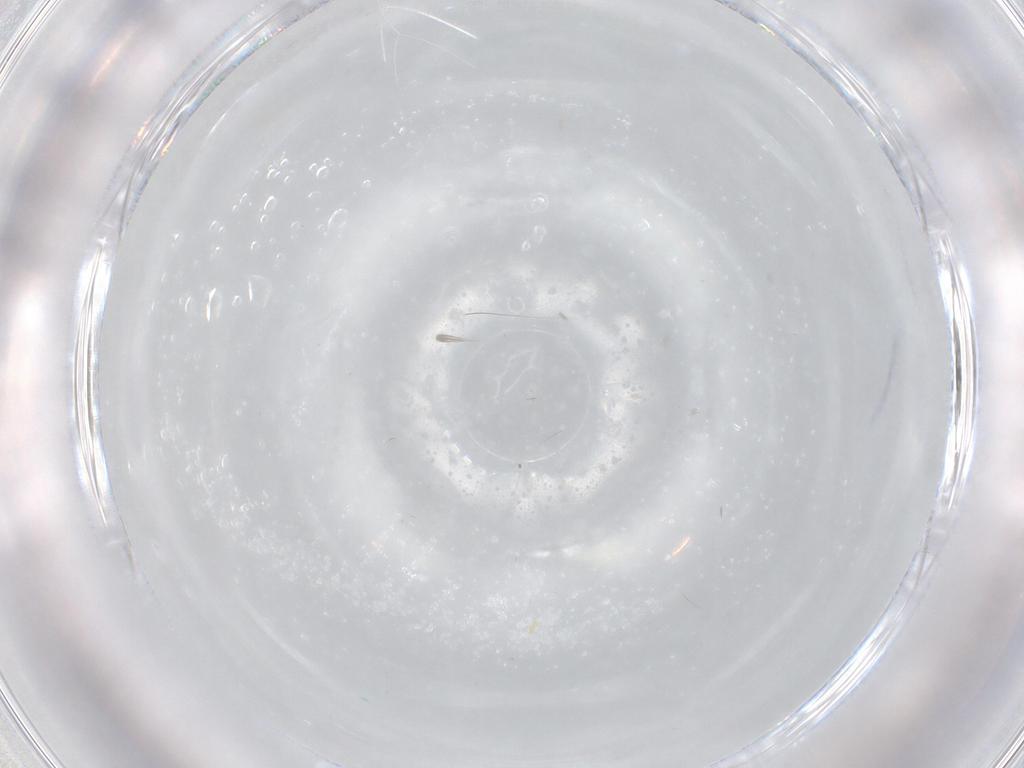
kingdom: Animalia
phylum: Arthropoda
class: Insecta
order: Diptera
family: Cecidomyiidae
